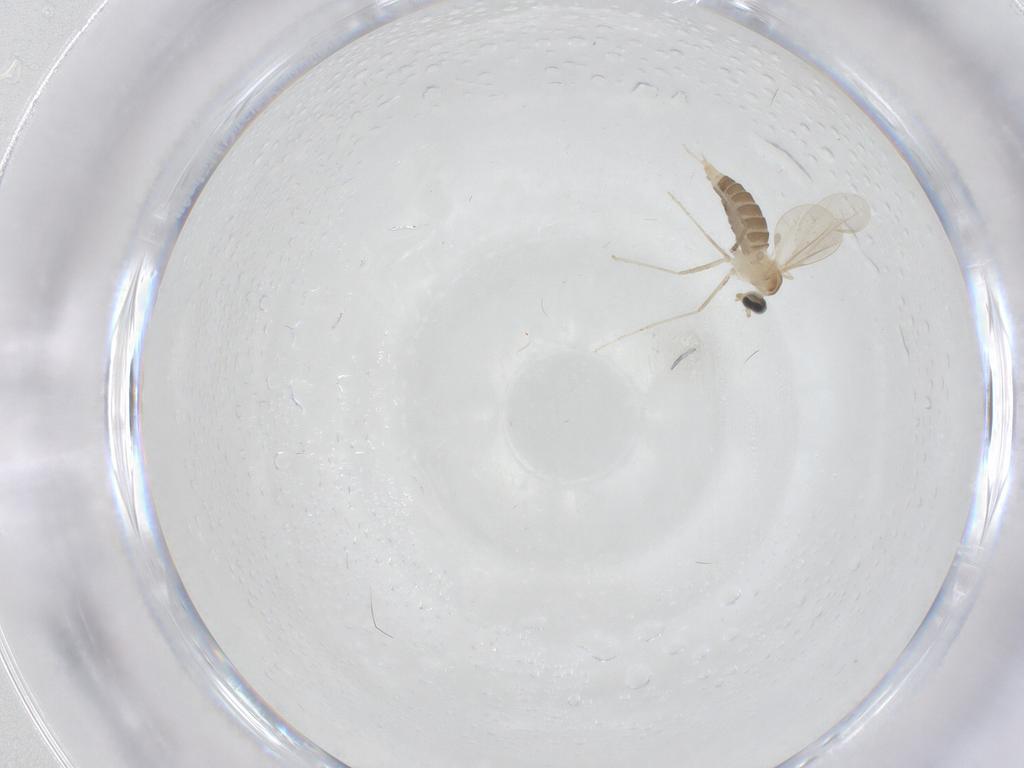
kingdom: Animalia
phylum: Arthropoda
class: Insecta
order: Diptera
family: Cecidomyiidae
